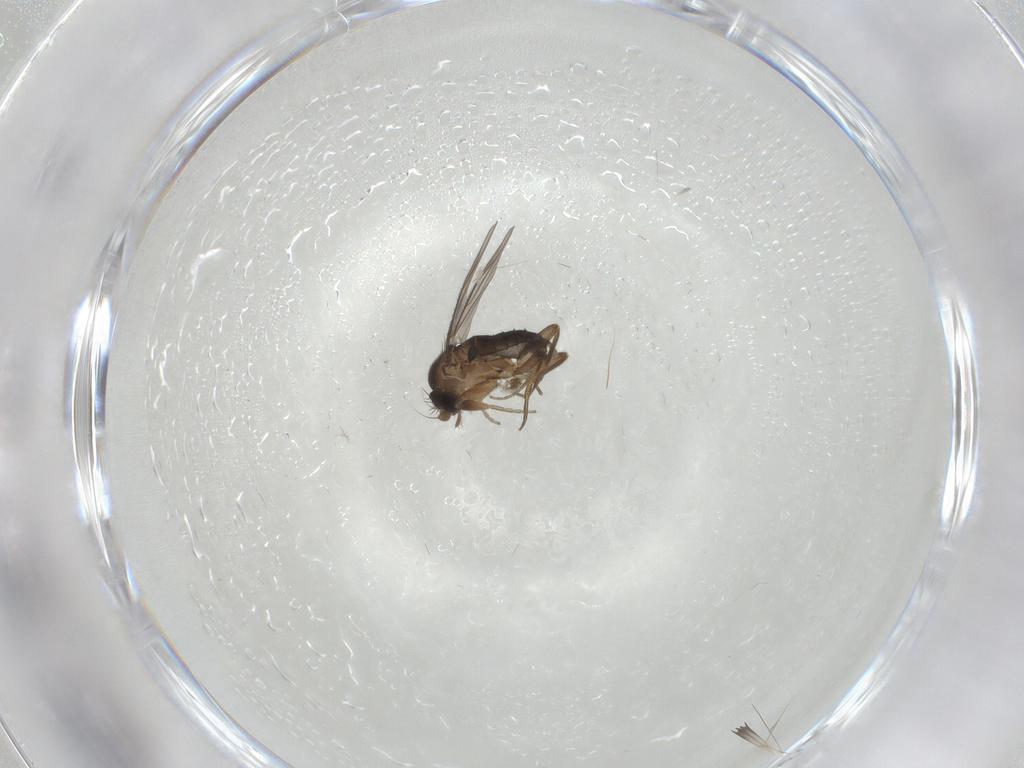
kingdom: Animalia
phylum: Arthropoda
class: Insecta
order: Diptera
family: Phoridae
